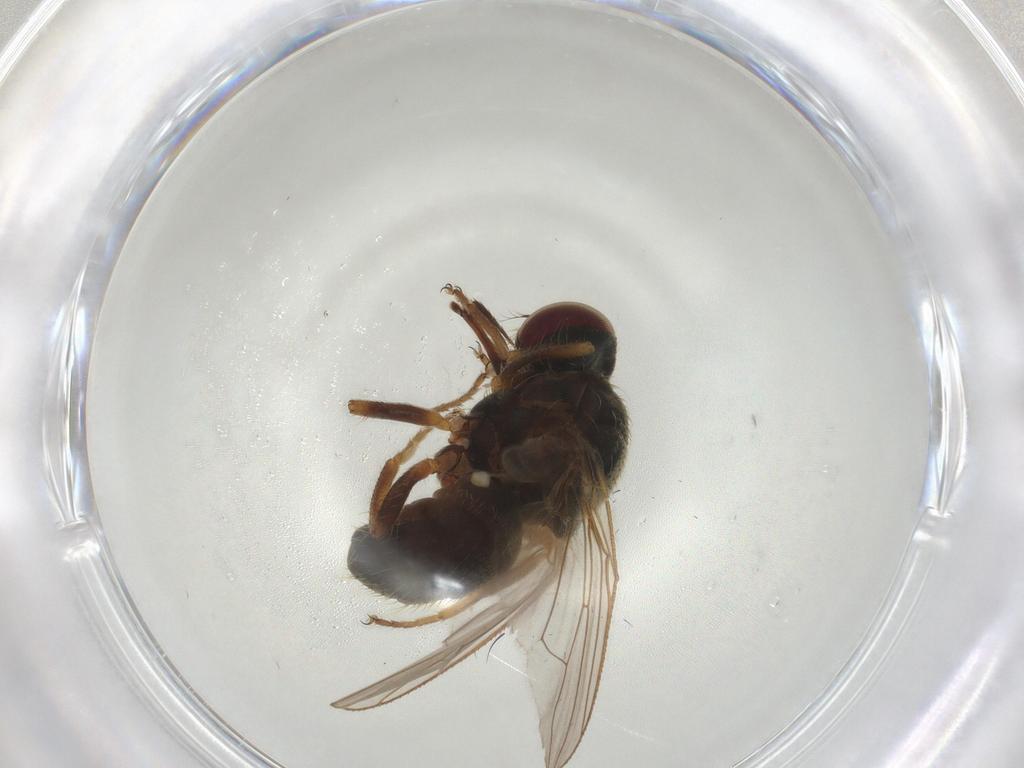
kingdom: Animalia
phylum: Arthropoda
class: Insecta
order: Diptera
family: Muscidae
